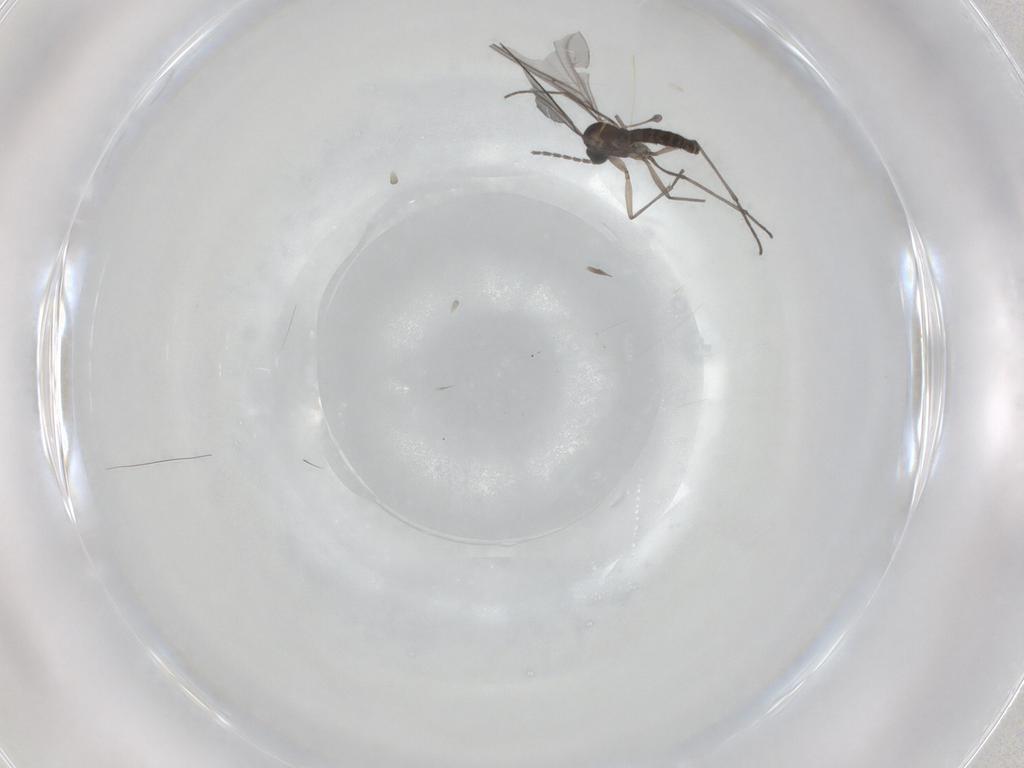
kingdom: Animalia
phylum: Arthropoda
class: Insecta
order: Diptera
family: Sciaridae
